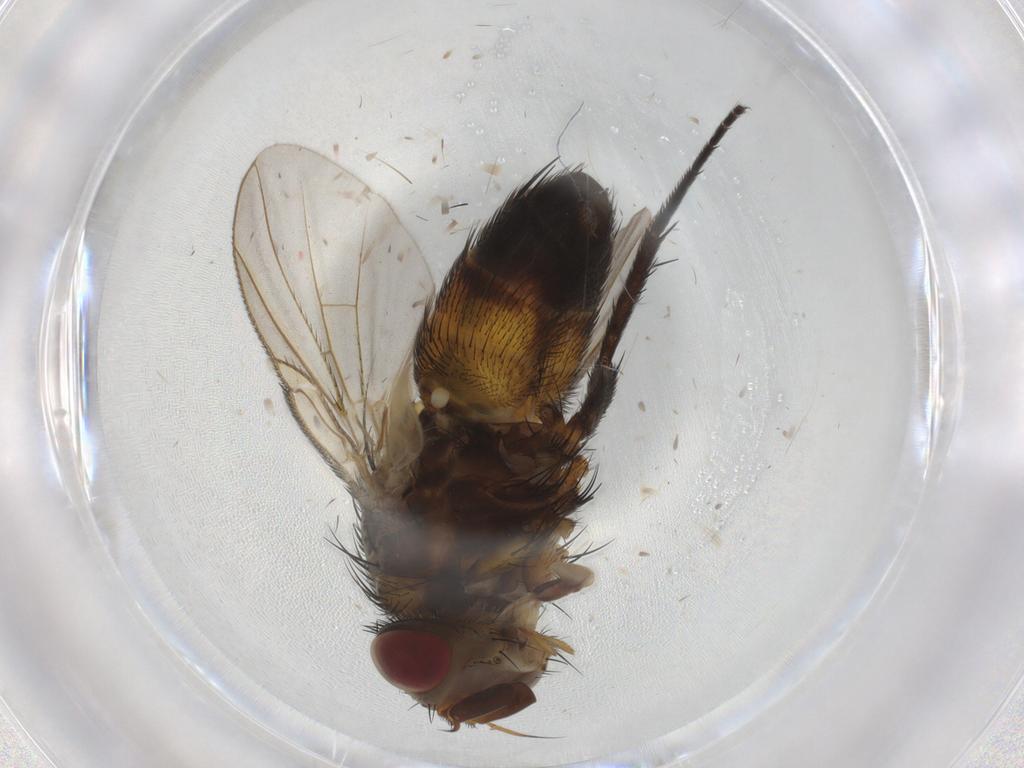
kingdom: Animalia
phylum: Arthropoda
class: Insecta
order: Diptera
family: Tachinidae
